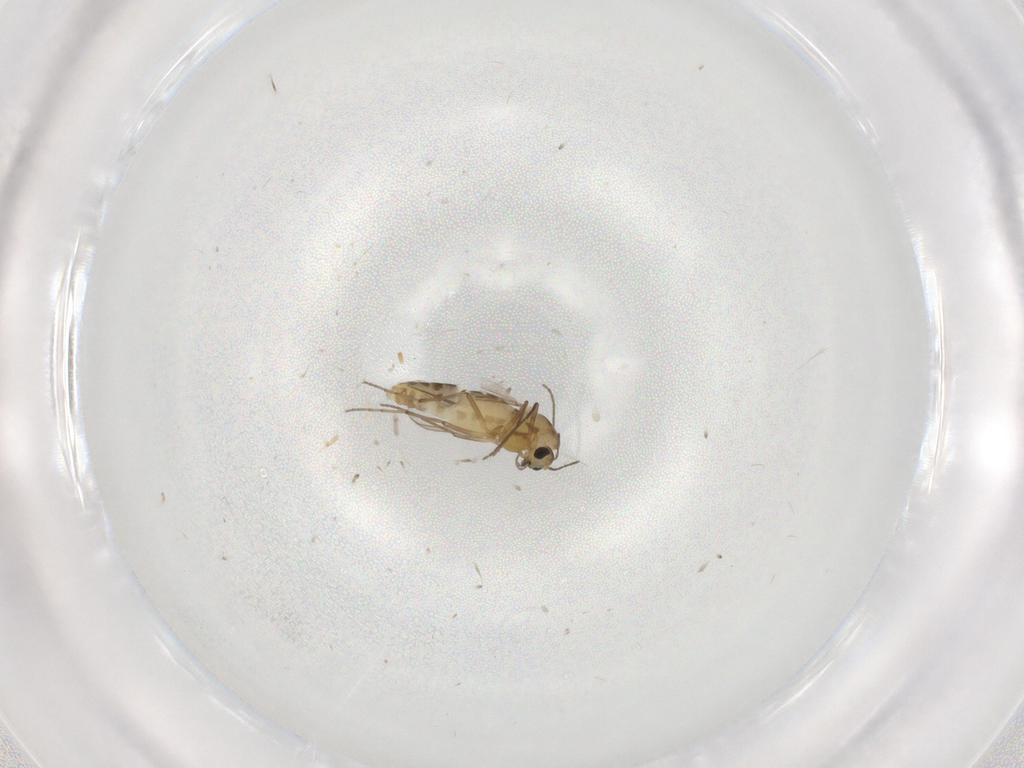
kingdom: Animalia
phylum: Arthropoda
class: Insecta
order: Diptera
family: Chironomidae
